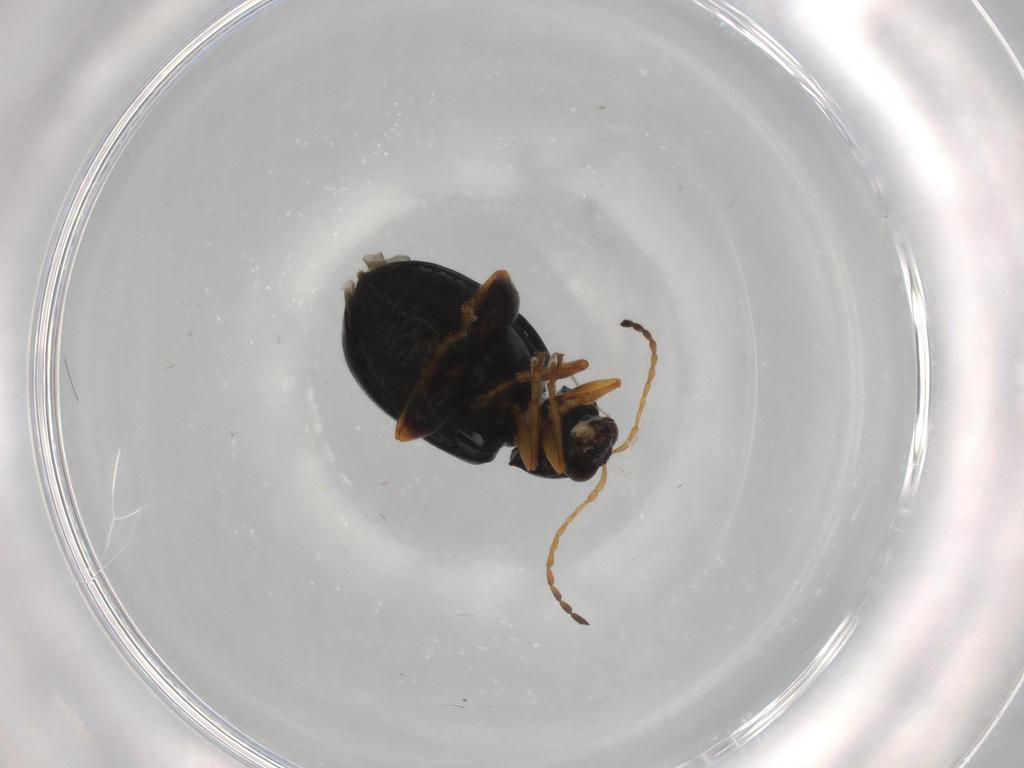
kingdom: Animalia
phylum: Arthropoda
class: Insecta
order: Coleoptera
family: Chrysomelidae
